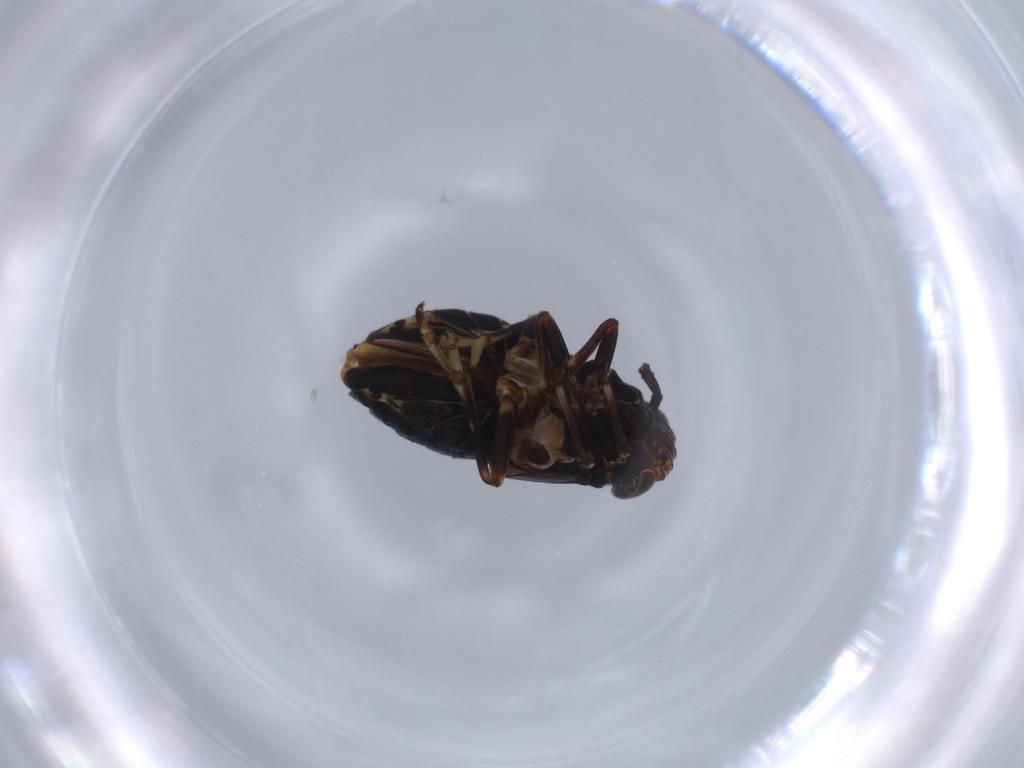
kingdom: Animalia
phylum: Arthropoda
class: Insecta
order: Hemiptera
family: Delphacidae
